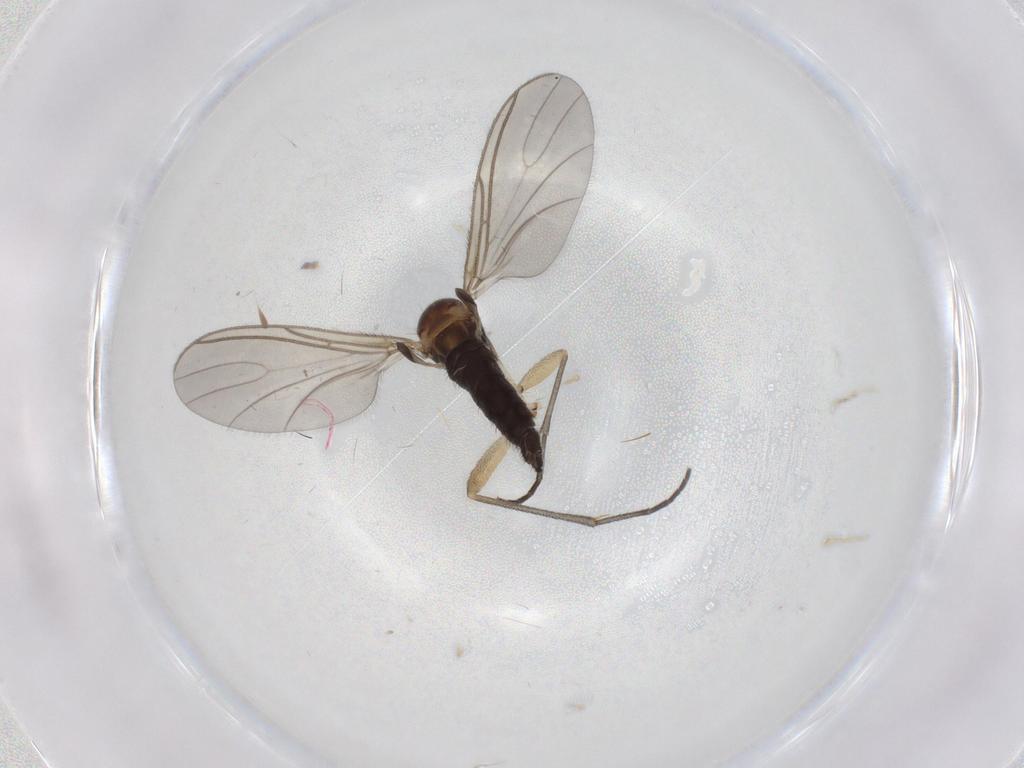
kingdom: Animalia
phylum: Arthropoda
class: Insecta
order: Diptera
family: Sciaridae
